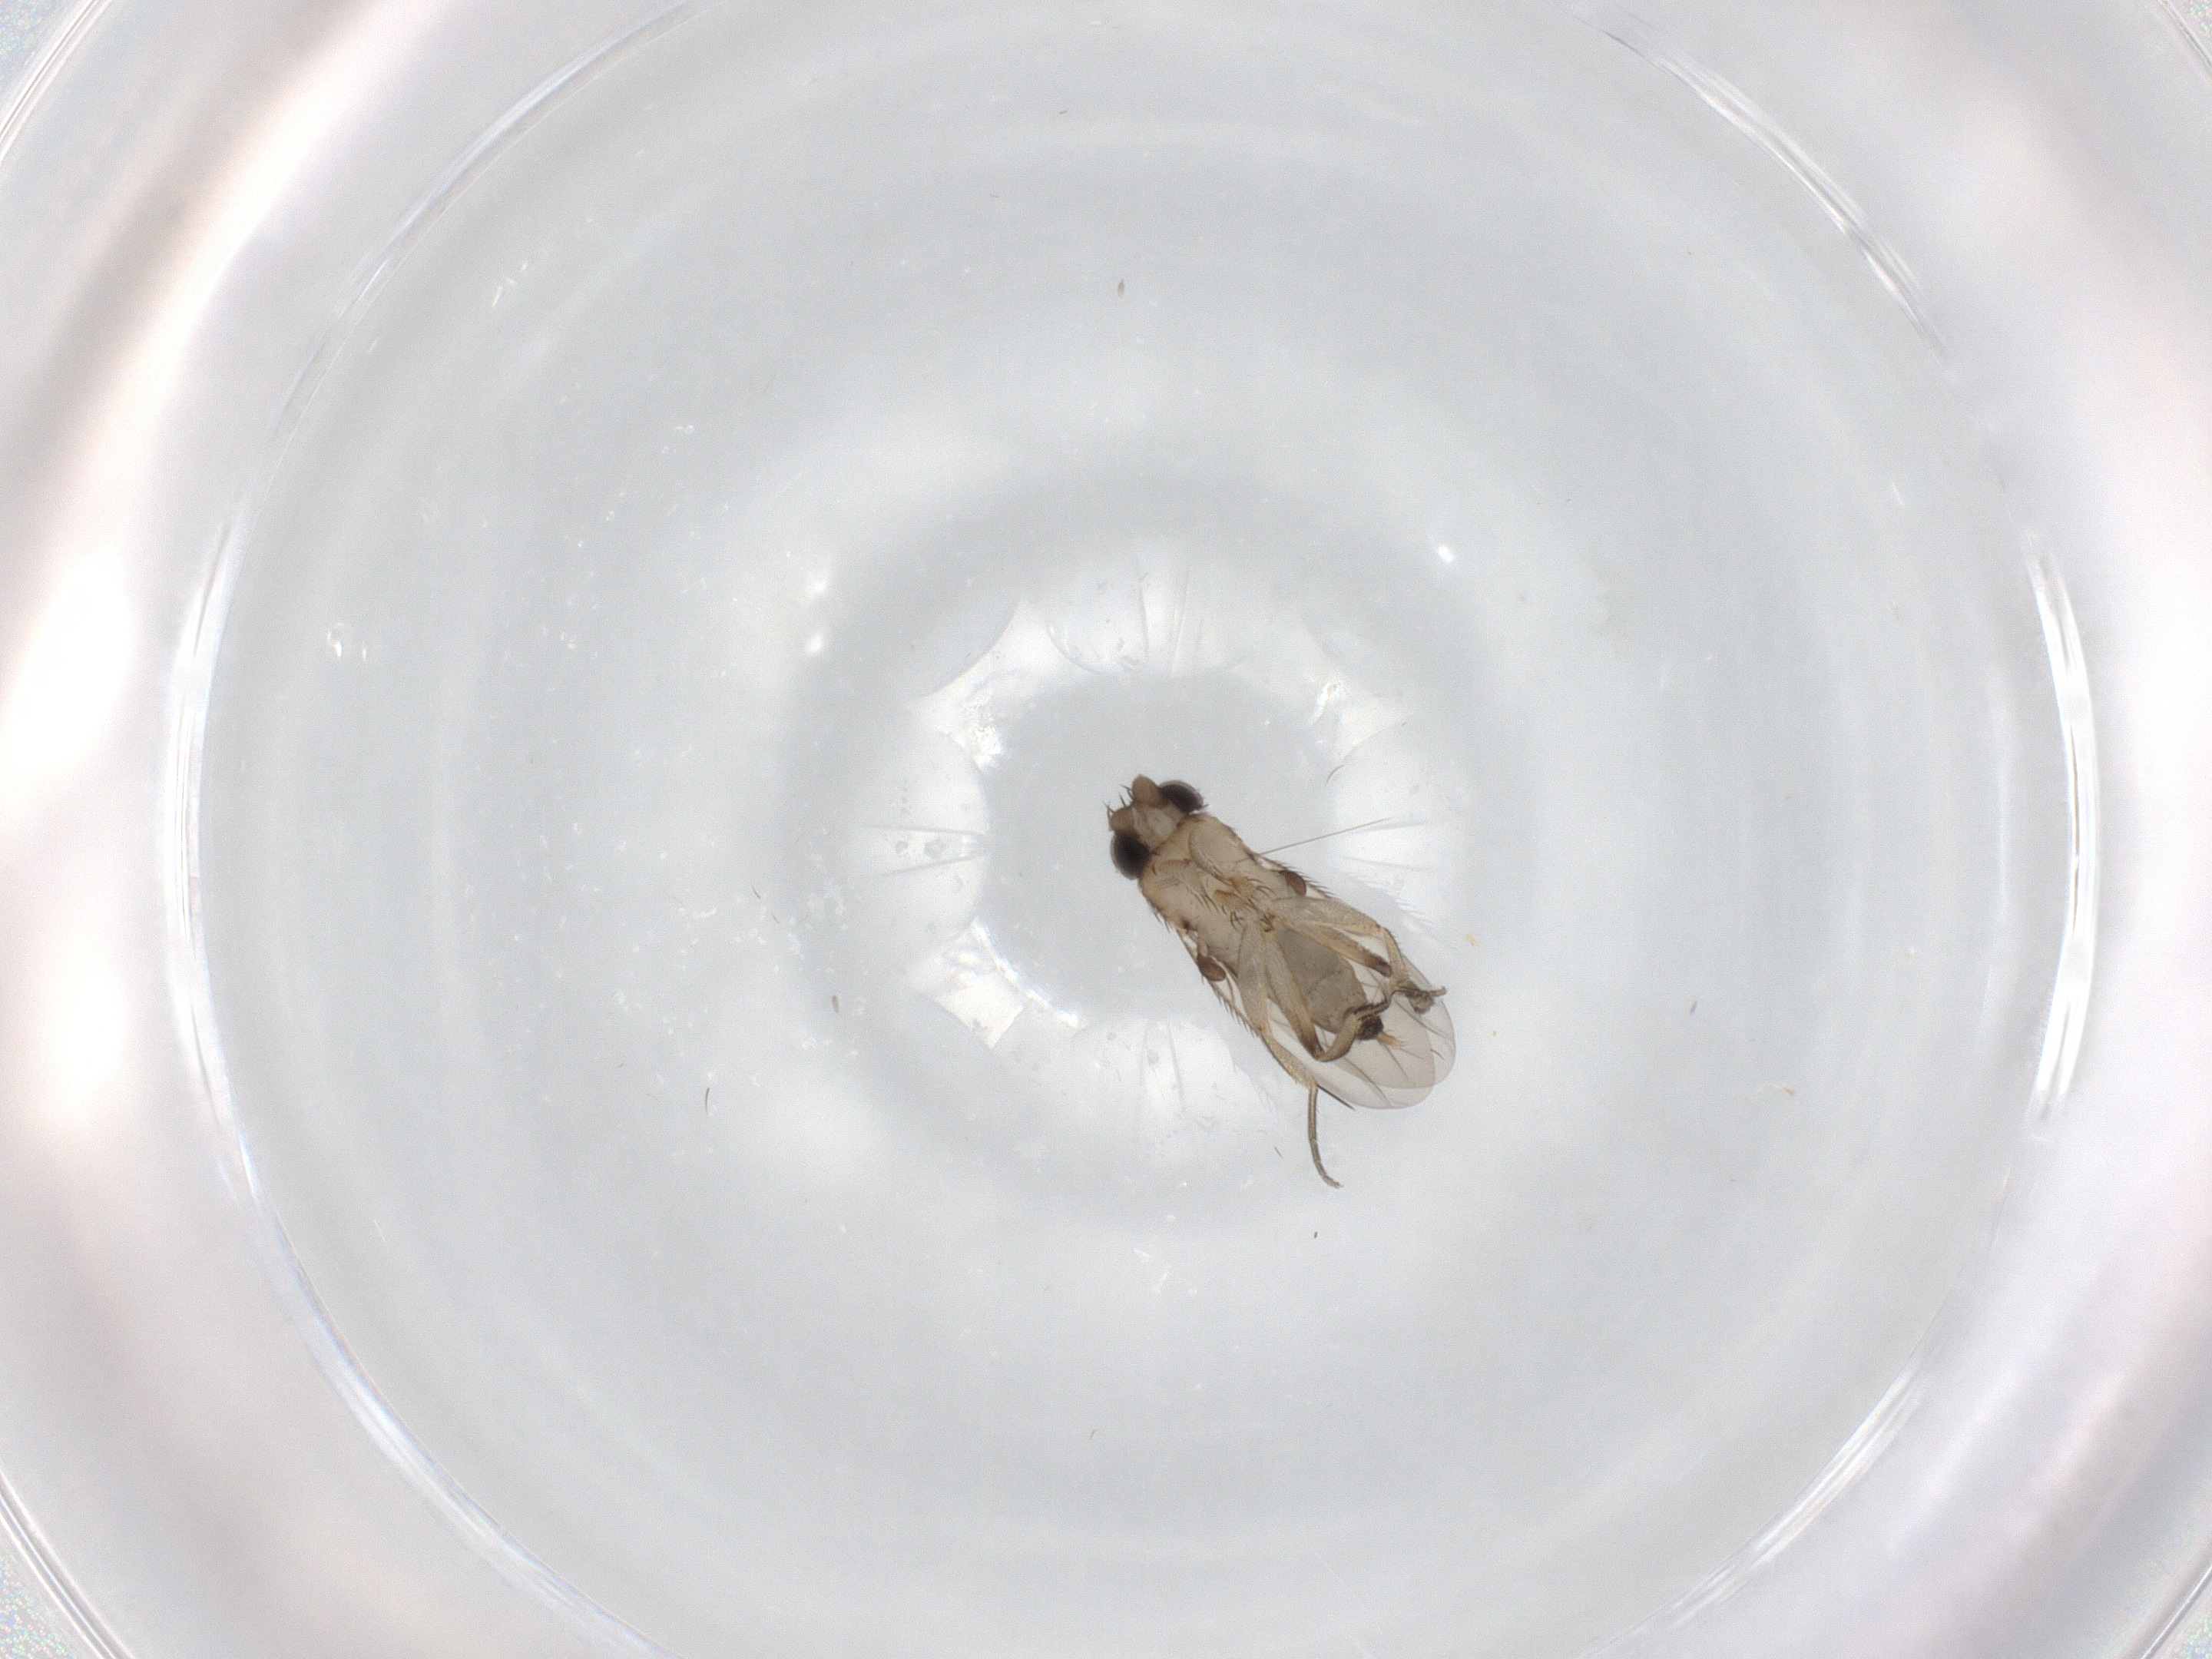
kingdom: Animalia
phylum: Arthropoda
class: Insecta
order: Diptera
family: Phoridae
